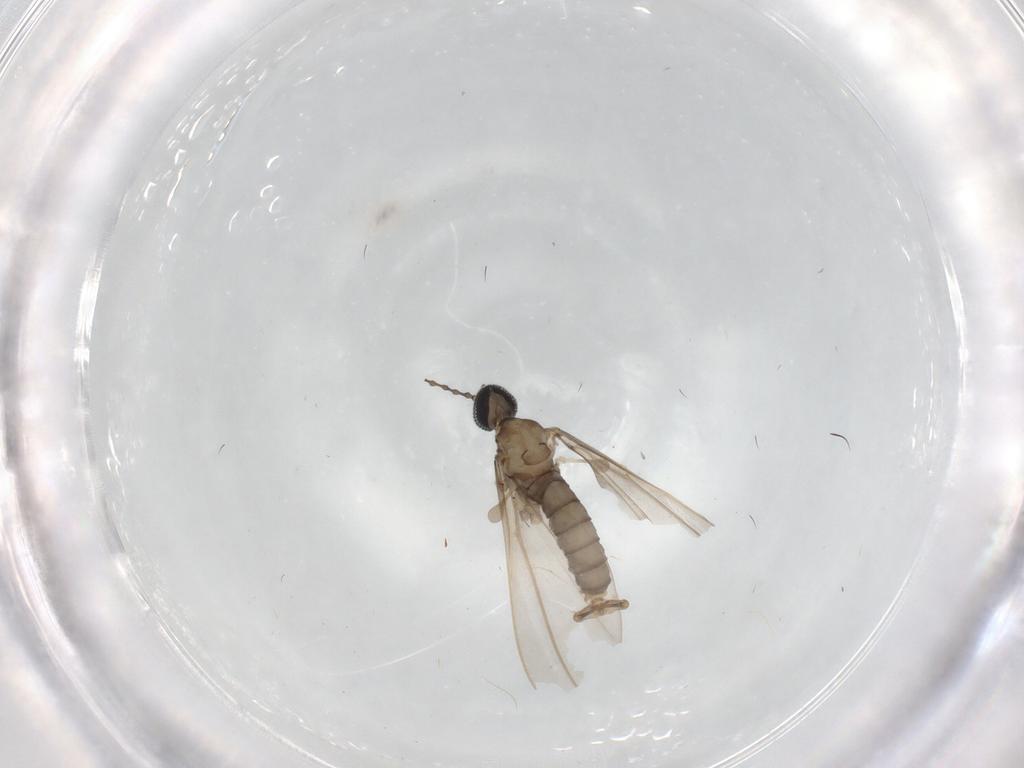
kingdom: Animalia
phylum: Arthropoda
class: Insecta
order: Diptera
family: Cecidomyiidae
